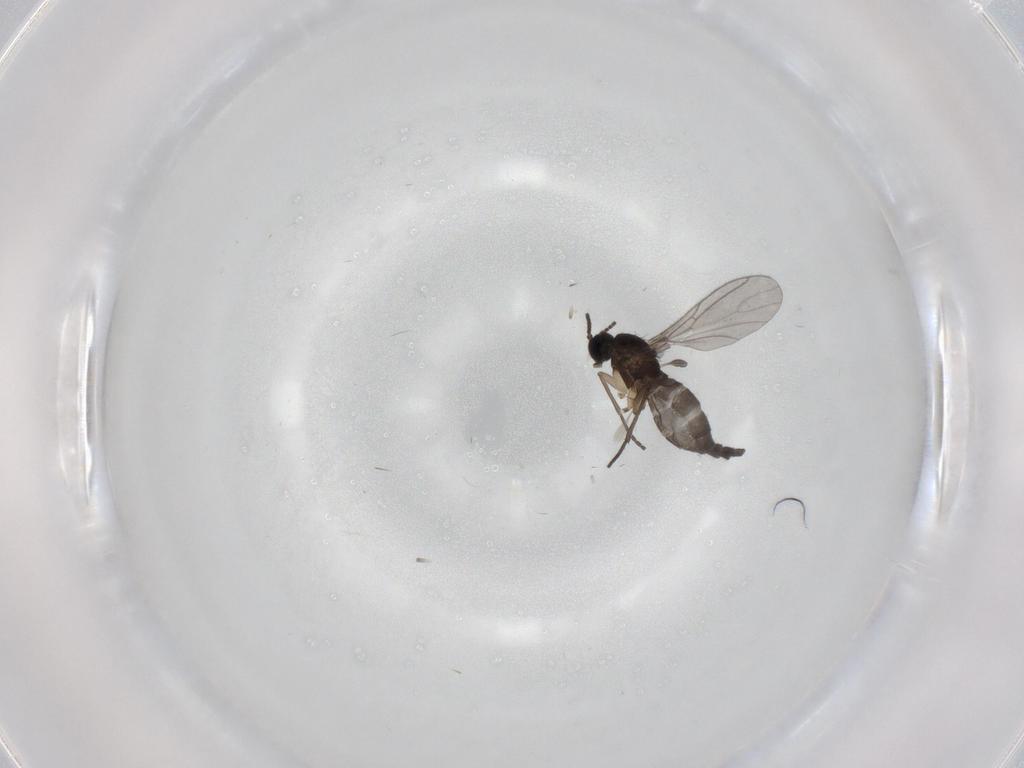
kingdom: Animalia
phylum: Arthropoda
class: Insecta
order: Diptera
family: Sciaridae
